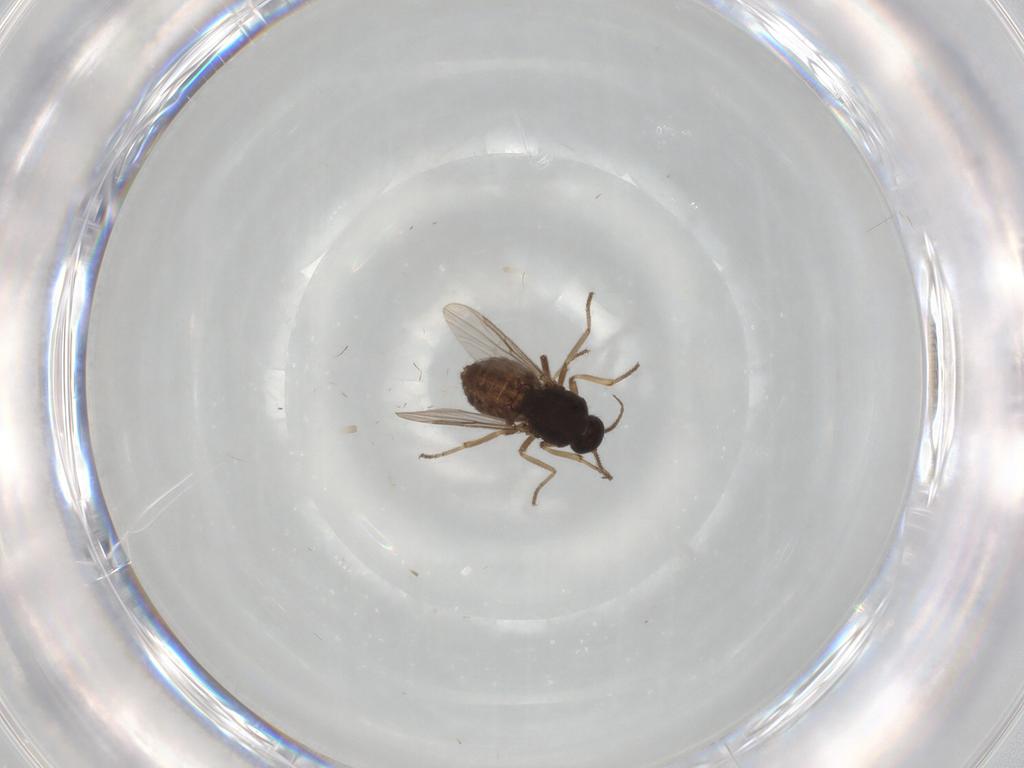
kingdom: Animalia
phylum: Arthropoda
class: Insecta
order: Diptera
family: Ceratopogonidae
